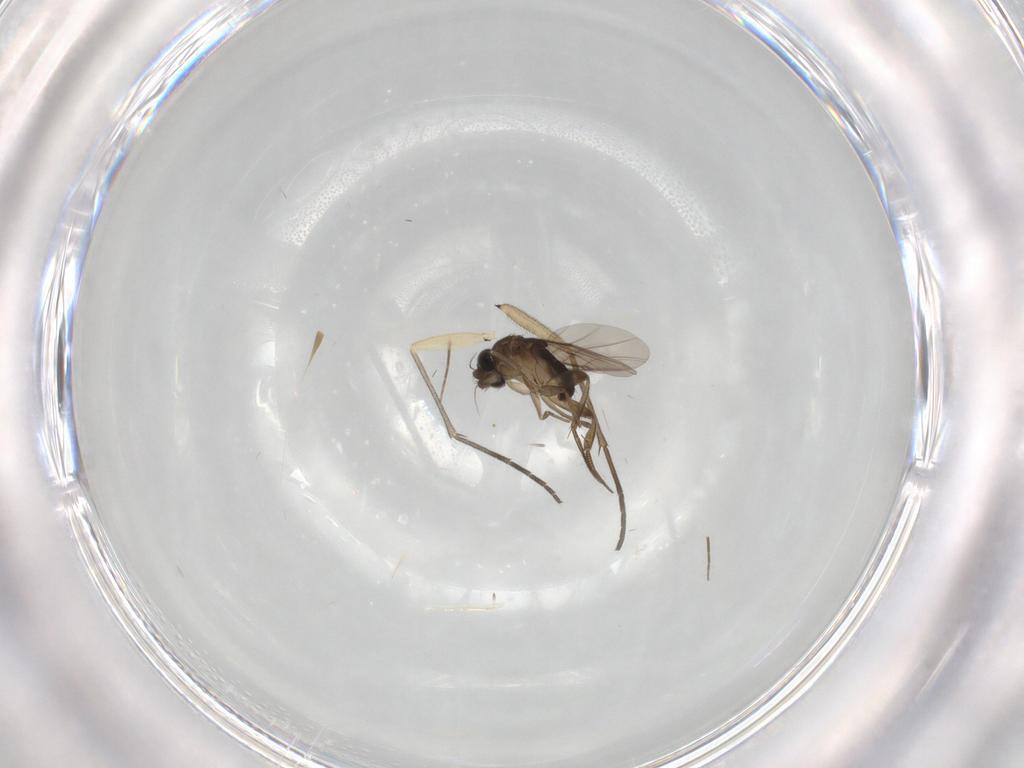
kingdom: Animalia
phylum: Arthropoda
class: Insecta
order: Diptera
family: Phoridae
